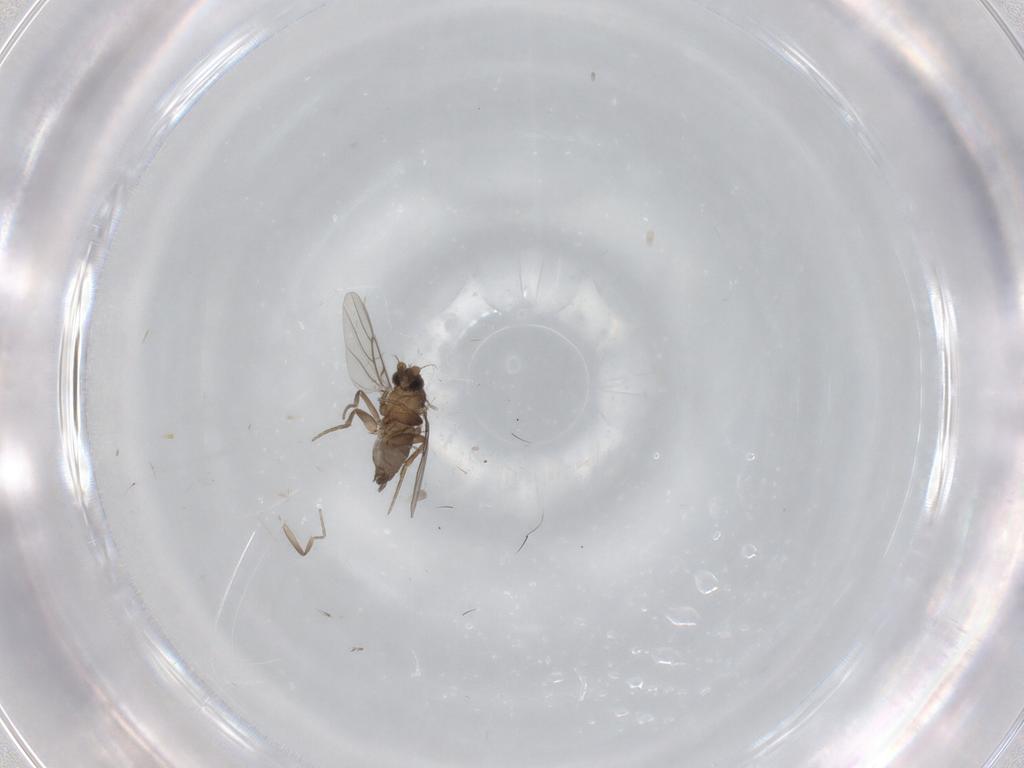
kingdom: Animalia
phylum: Arthropoda
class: Insecta
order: Diptera
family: Phoridae
